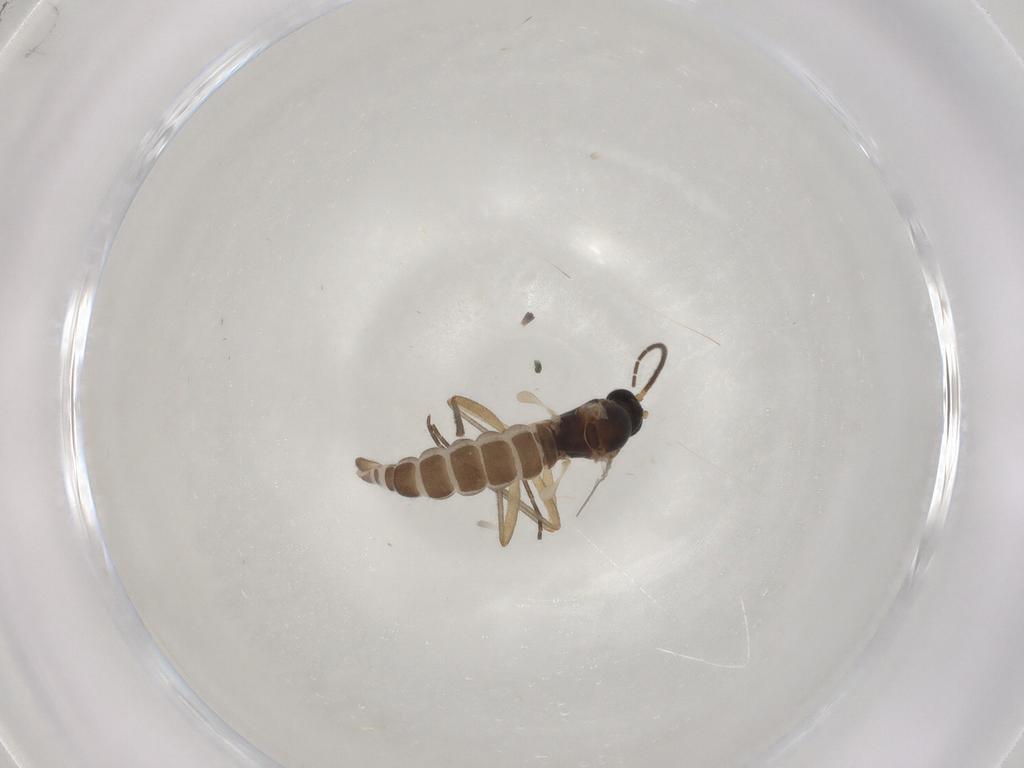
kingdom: Animalia
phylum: Arthropoda
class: Insecta
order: Diptera
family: Sciaridae
